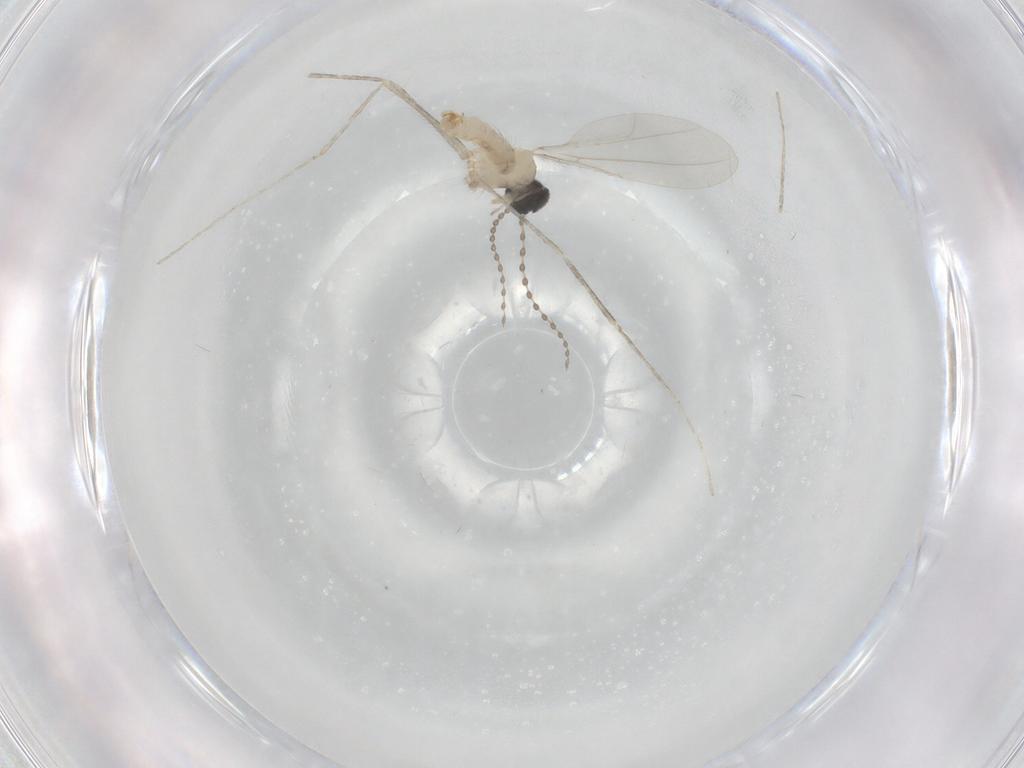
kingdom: Animalia
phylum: Arthropoda
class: Insecta
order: Diptera
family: Cecidomyiidae
